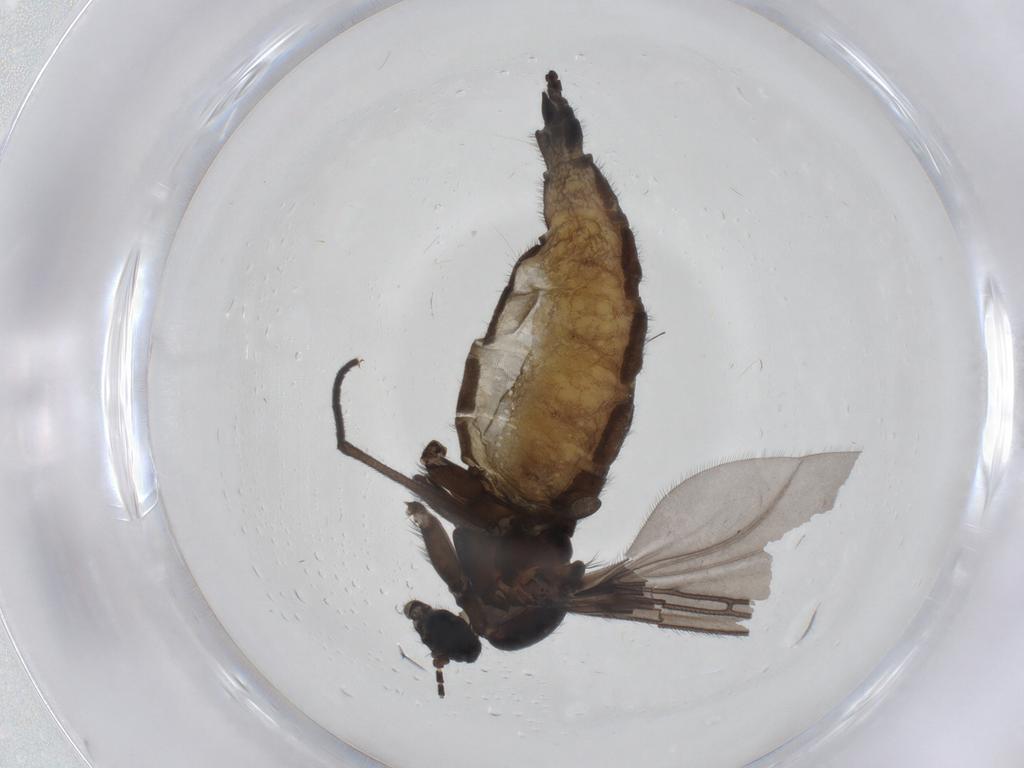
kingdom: Animalia
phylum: Arthropoda
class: Insecta
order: Diptera
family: Sciaridae
